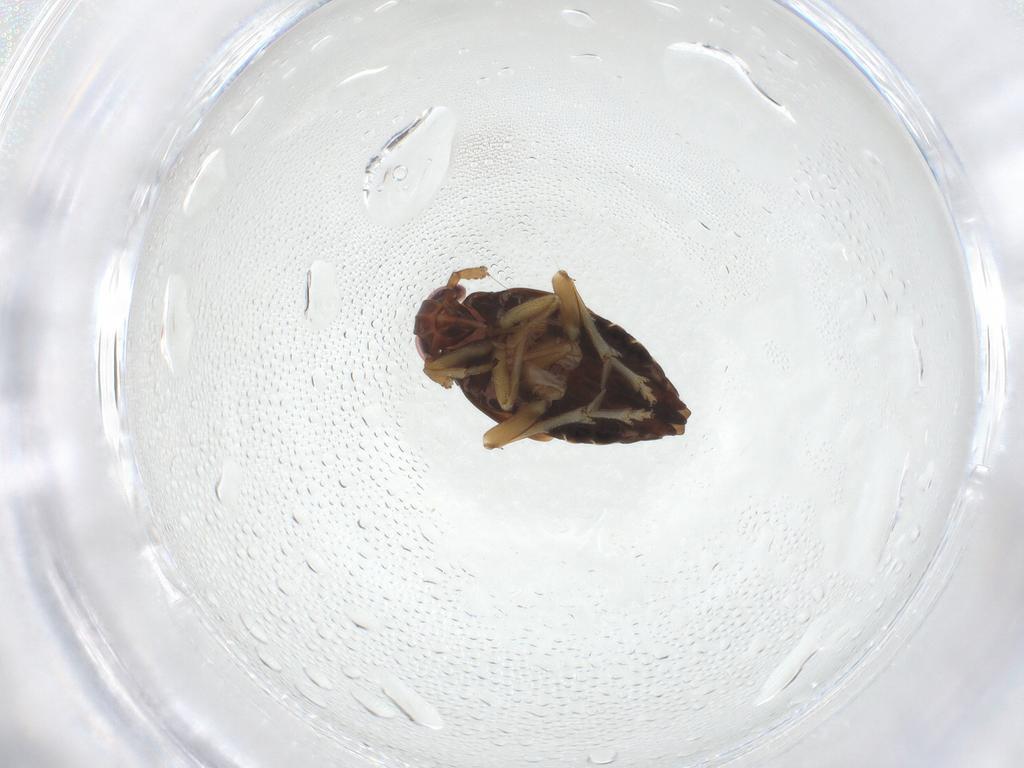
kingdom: Animalia
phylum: Arthropoda
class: Insecta
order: Hemiptera
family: Delphacidae
